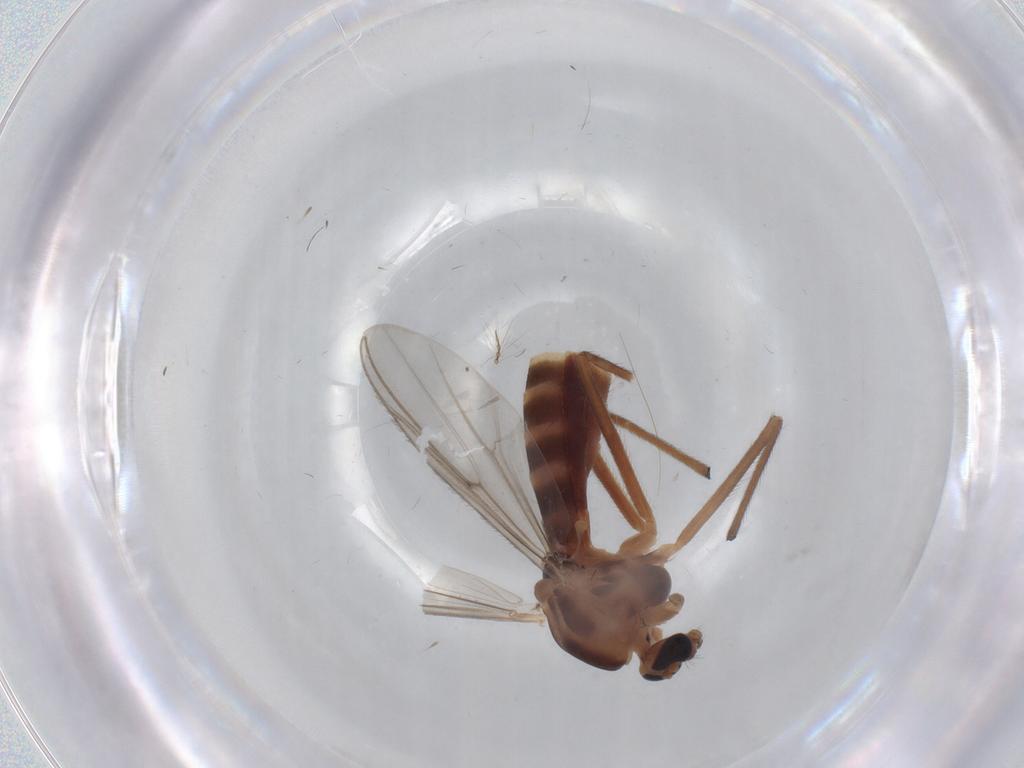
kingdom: Animalia
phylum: Arthropoda
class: Insecta
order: Diptera
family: Chironomidae
